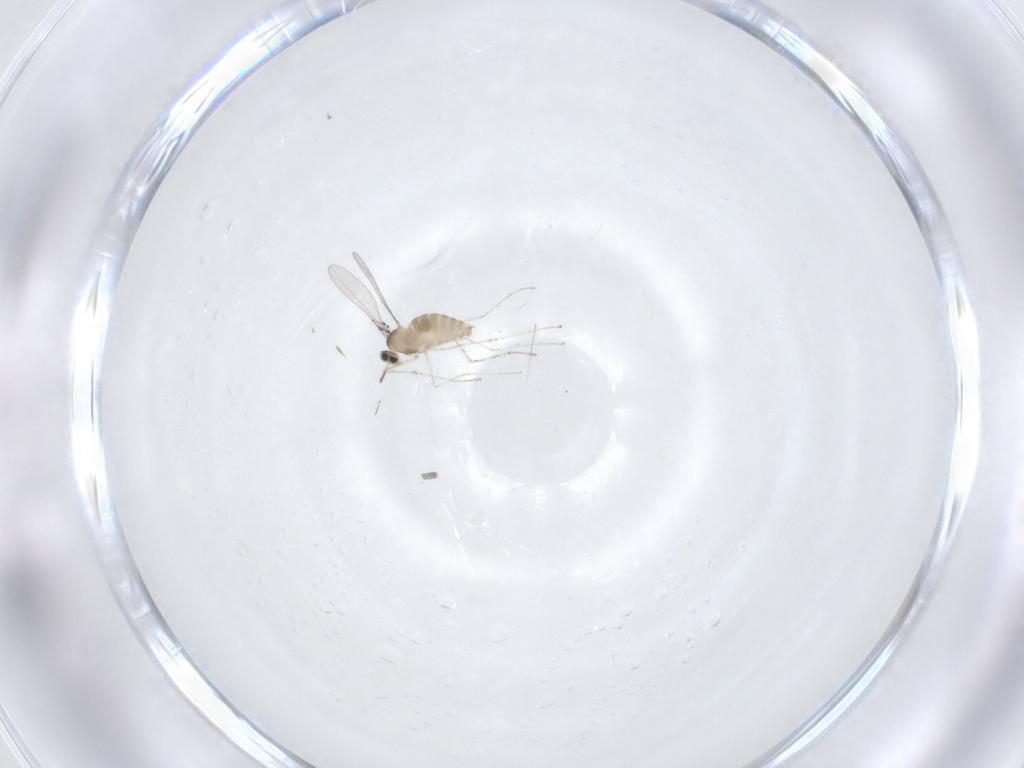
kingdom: Animalia
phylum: Arthropoda
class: Insecta
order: Diptera
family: Cecidomyiidae
